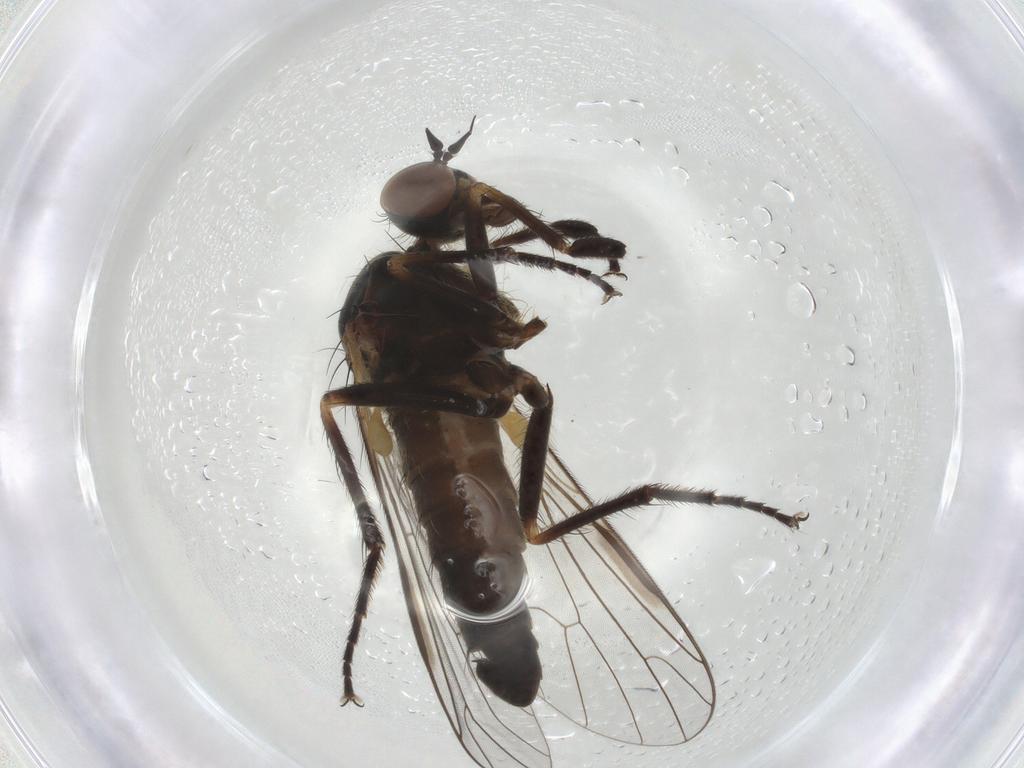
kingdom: Animalia
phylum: Arthropoda
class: Insecta
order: Diptera
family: Empididae
